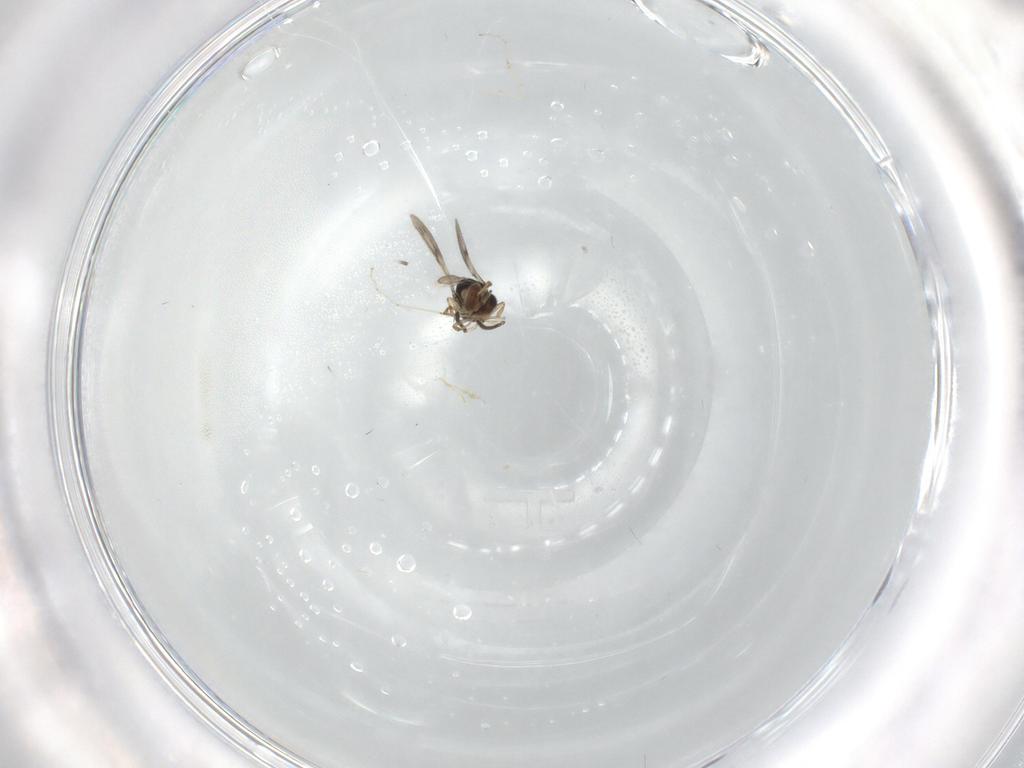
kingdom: Animalia
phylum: Arthropoda
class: Insecta
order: Hymenoptera
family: Scelionidae
